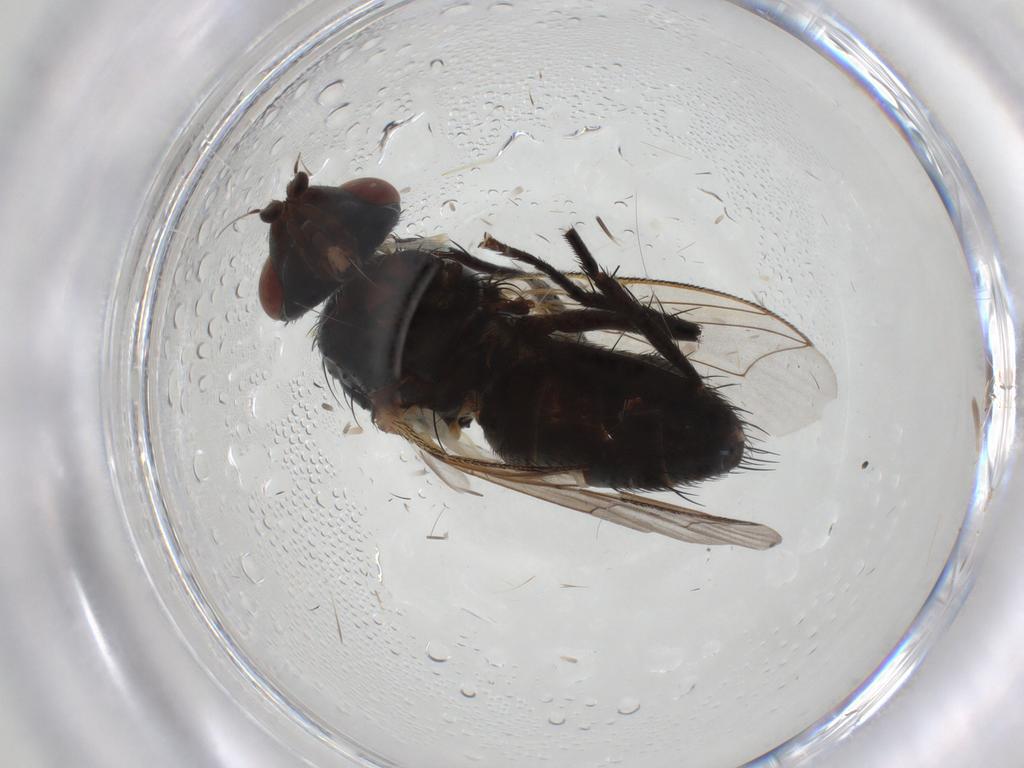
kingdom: Animalia
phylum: Arthropoda
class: Insecta
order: Diptera
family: Sarcophagidae
